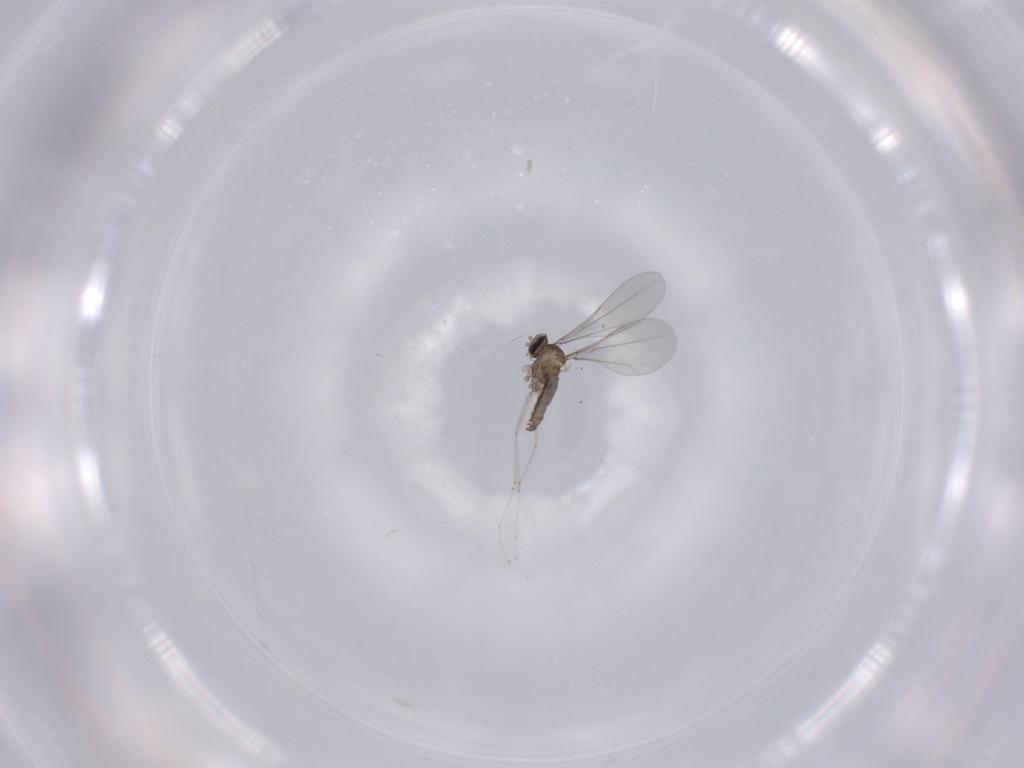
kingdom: Animalia
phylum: Arthropoda
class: Insecta
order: Diptera
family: Cecidomyiidae
